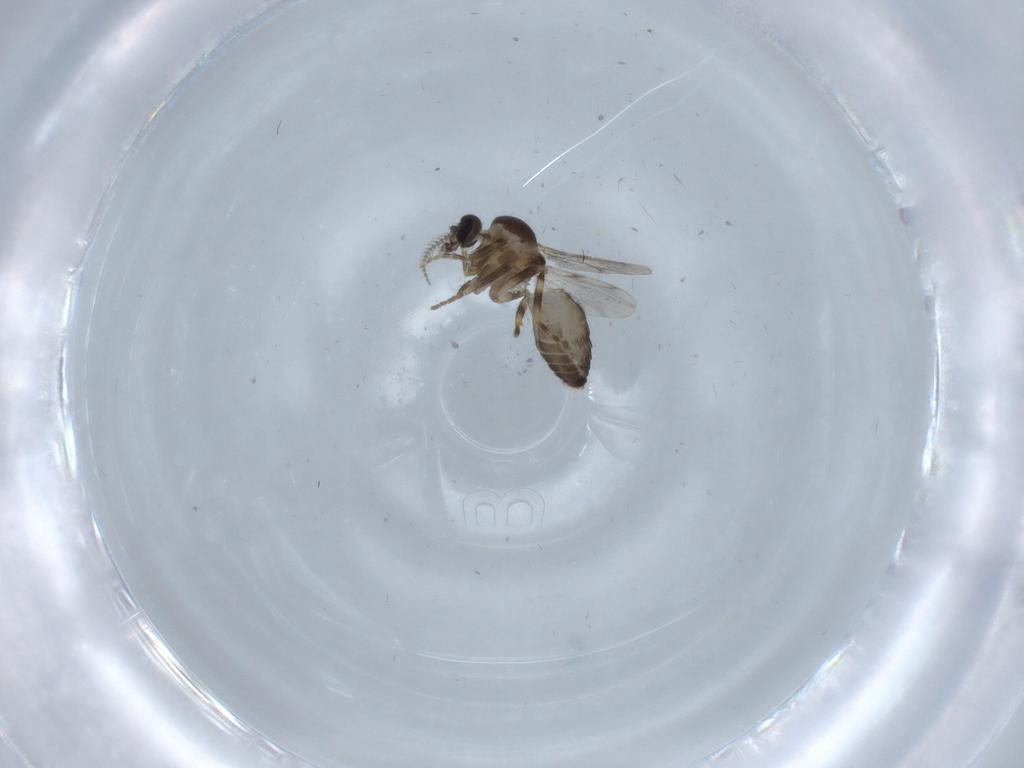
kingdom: Animalia
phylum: Arthropoda
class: Insecta
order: Diptera
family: Ceratopogonidae
